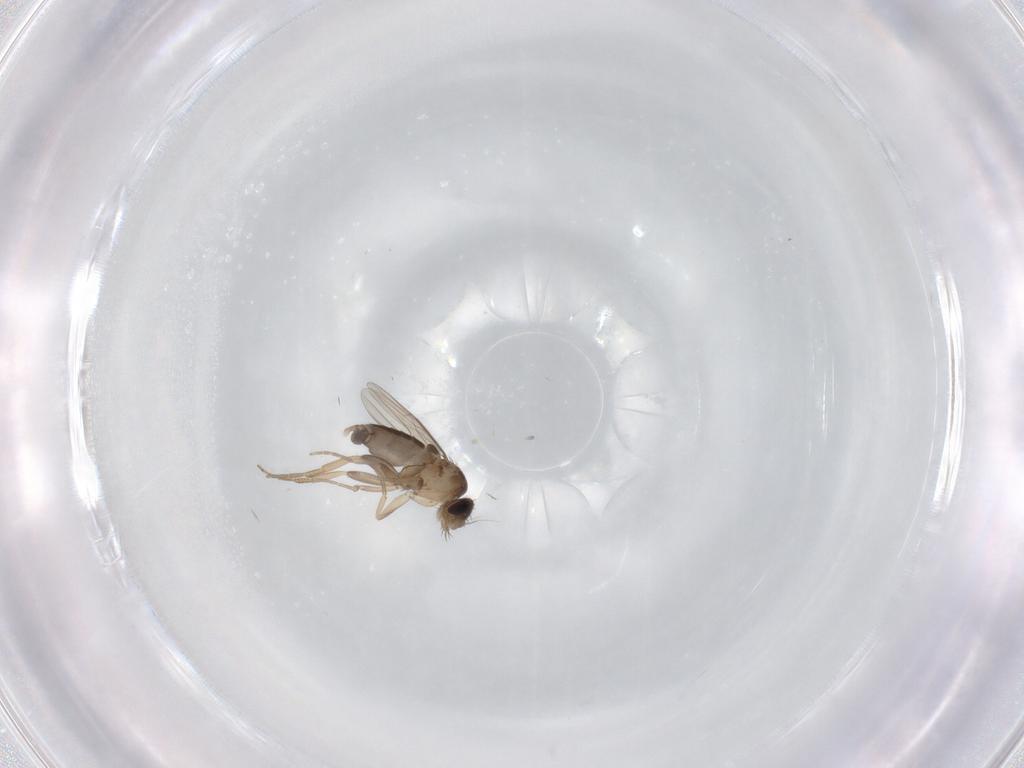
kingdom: Animalia
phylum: Arthropoda
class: Insecta
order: Diptera
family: Phoridae
